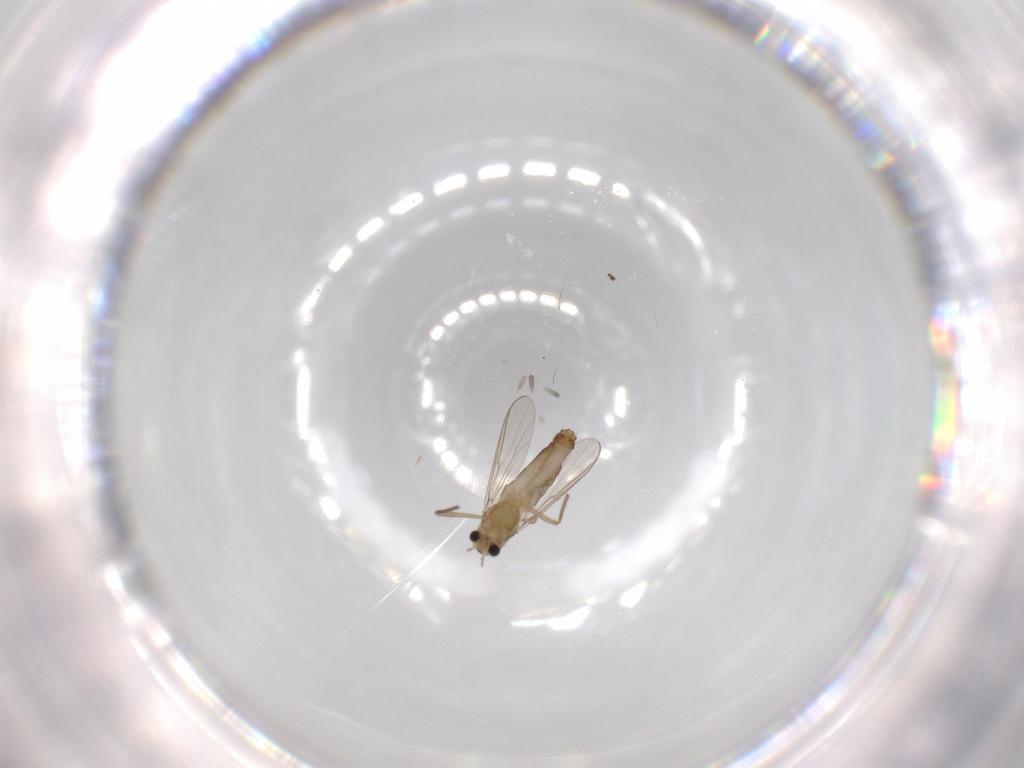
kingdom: Animalia
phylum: Arthropoda
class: Insecta
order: Diptera
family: Chironomidae
